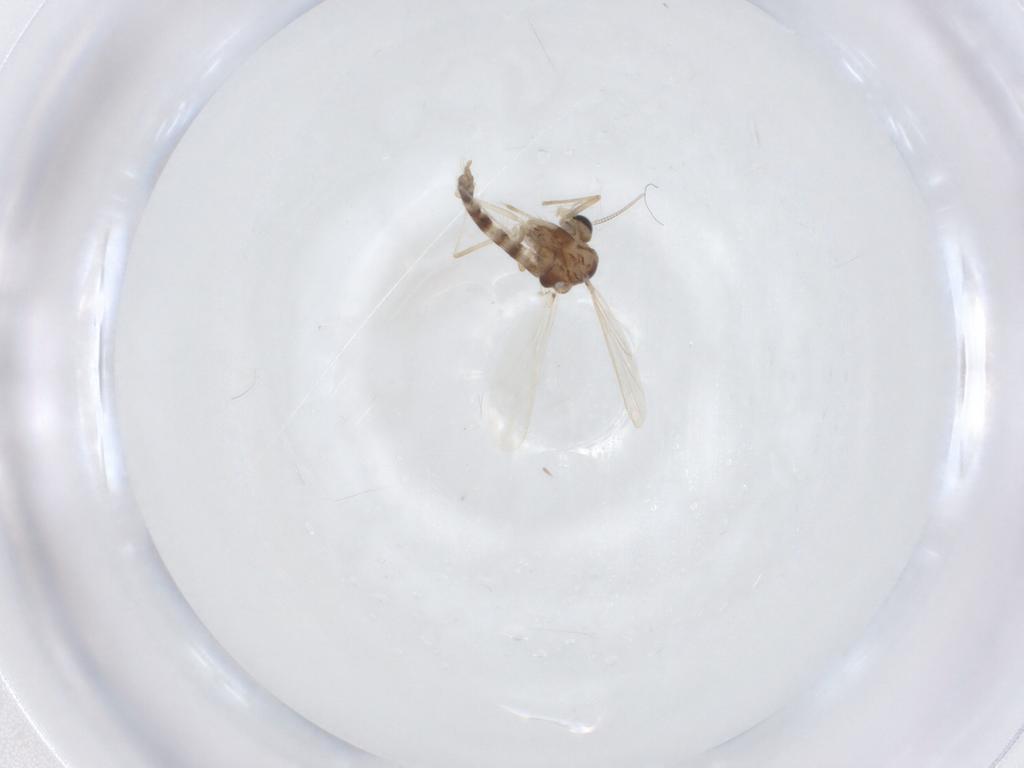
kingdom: Animalia
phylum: Arthropoda
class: Insecta
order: Diptera
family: Chironomidae
